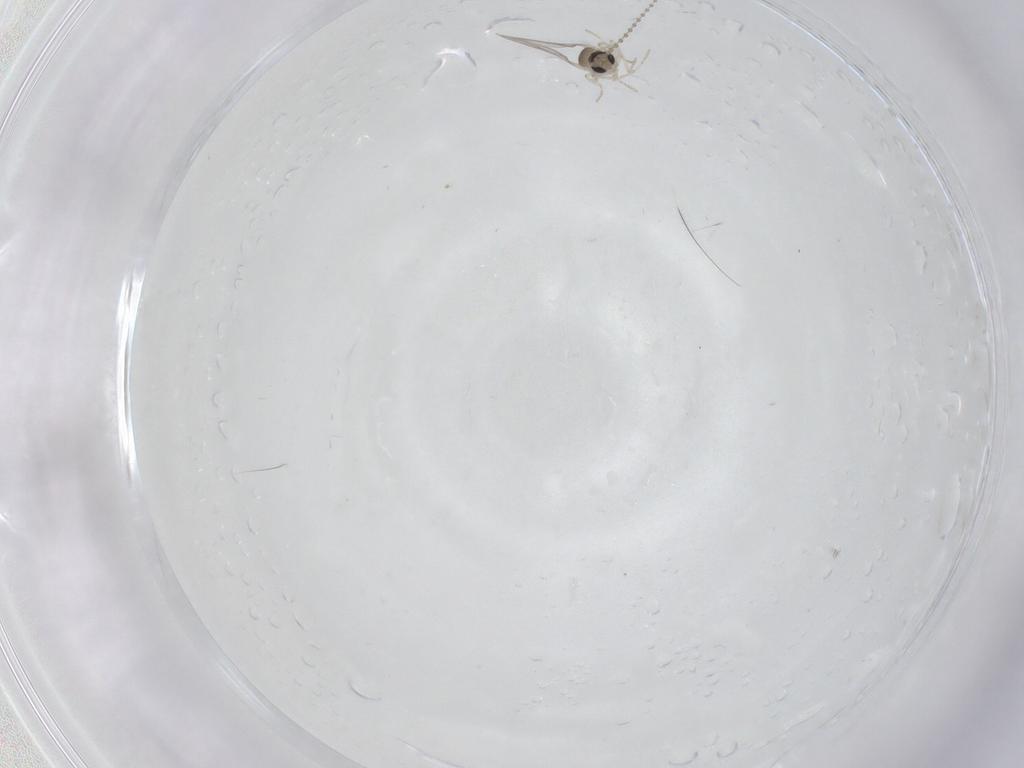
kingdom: Animalia
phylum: Arthropoda
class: Insecta
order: Diptera
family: Cecidomyiidae
